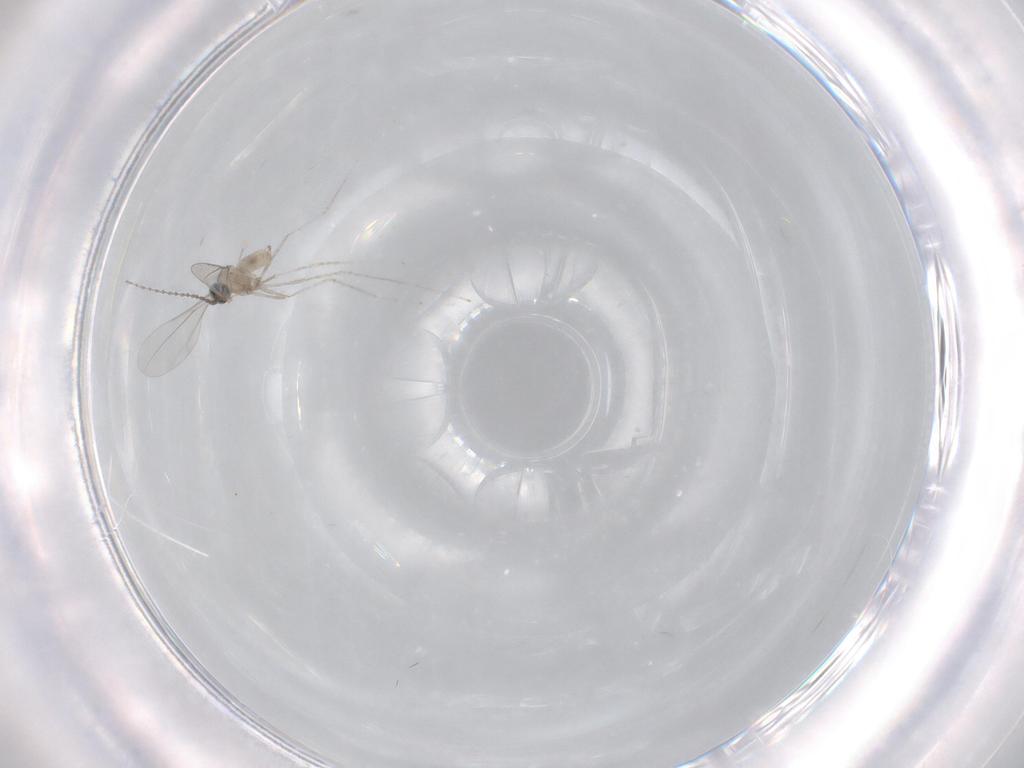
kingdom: Animalia
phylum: Arthropoda
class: Insecta
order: Diptera
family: Cecidomyiidae
